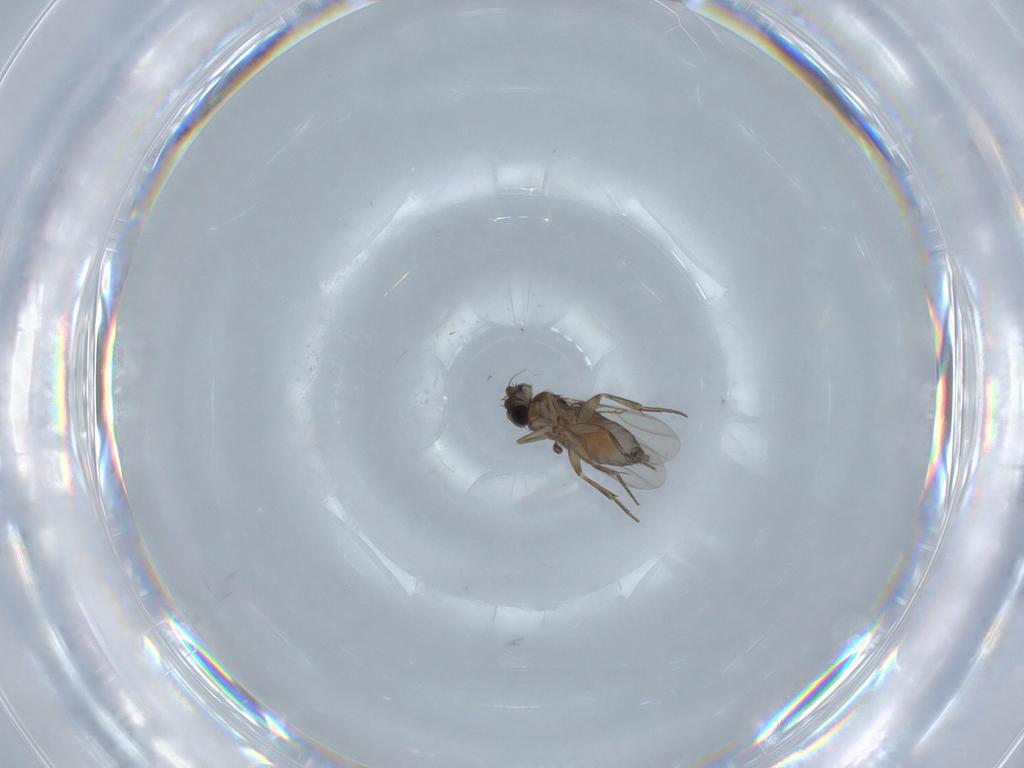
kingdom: Animalia
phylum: Arthropoda
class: Insecta
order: Diptera
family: Phoridae
